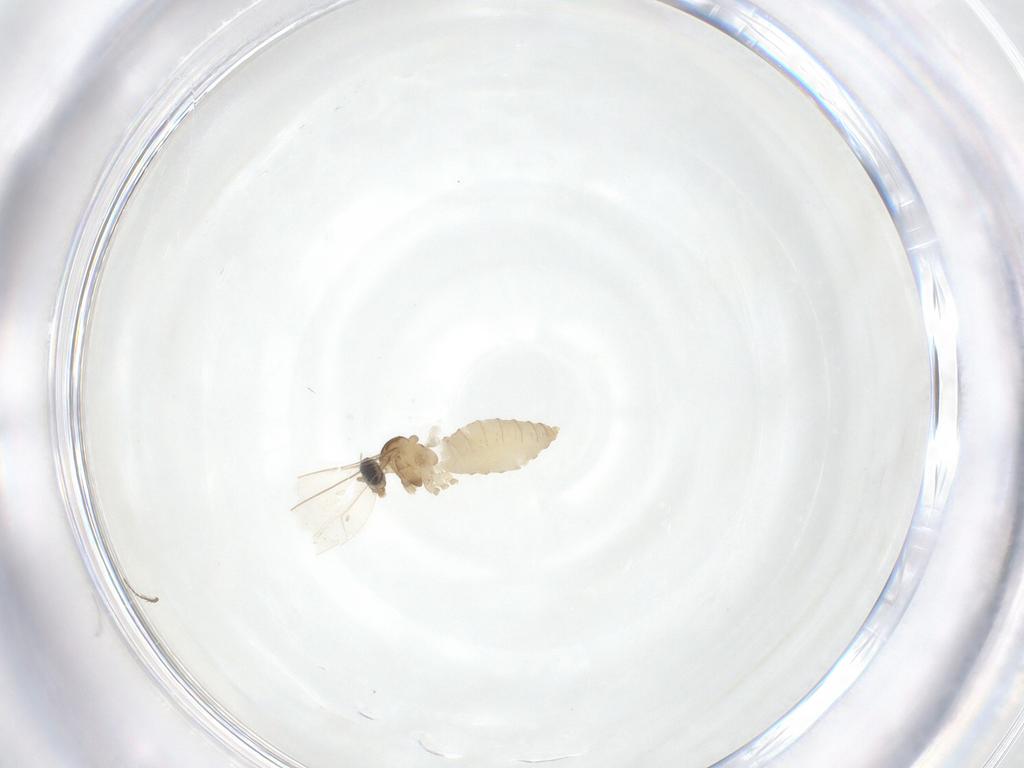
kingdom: Animalia
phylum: Arthropoda
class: Insecta
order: Diptera
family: Cecidomyiidae
